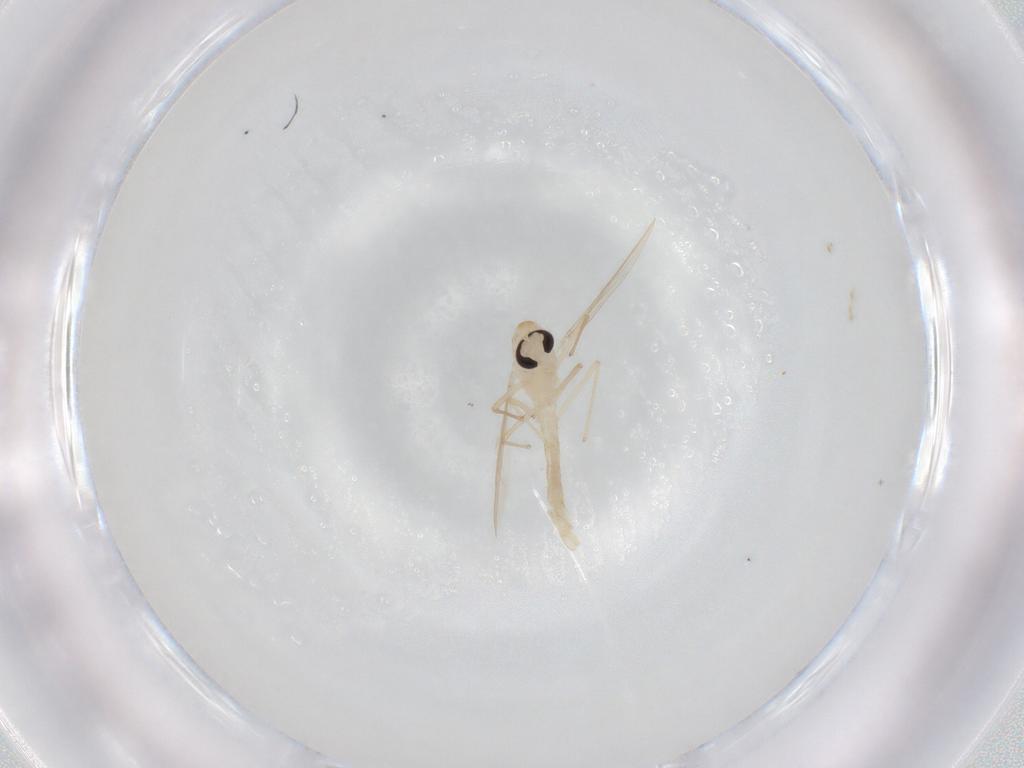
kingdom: Animalia
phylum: Arthropoda
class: Insecta
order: Diptera
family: Chironomidae
